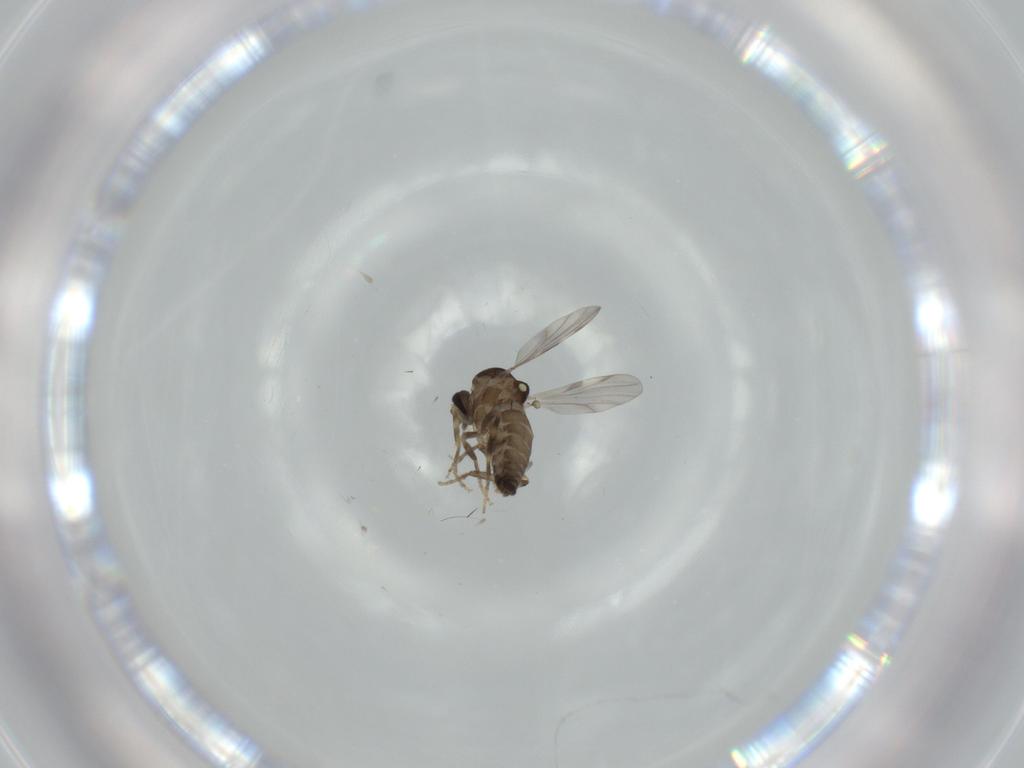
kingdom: Animalia
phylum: Arthropoda
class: Insecta
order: Diptera
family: Ceratopogonidae
